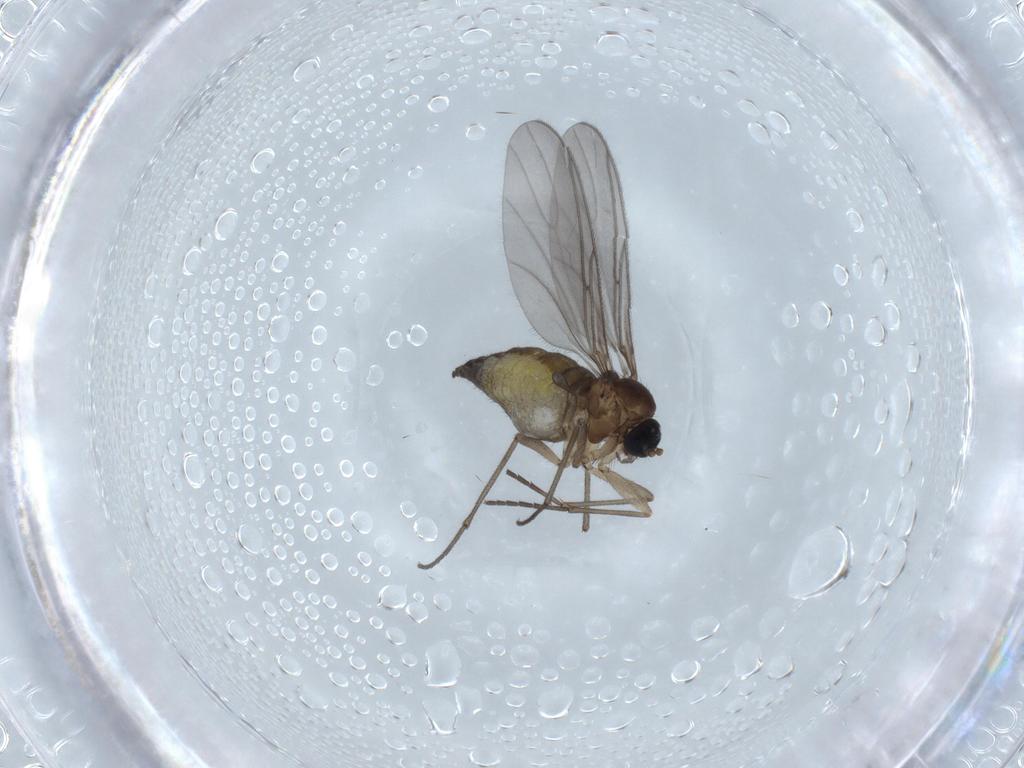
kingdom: Animalia
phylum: Arthropoda
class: Insecta
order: Diptera
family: Sciaridae
